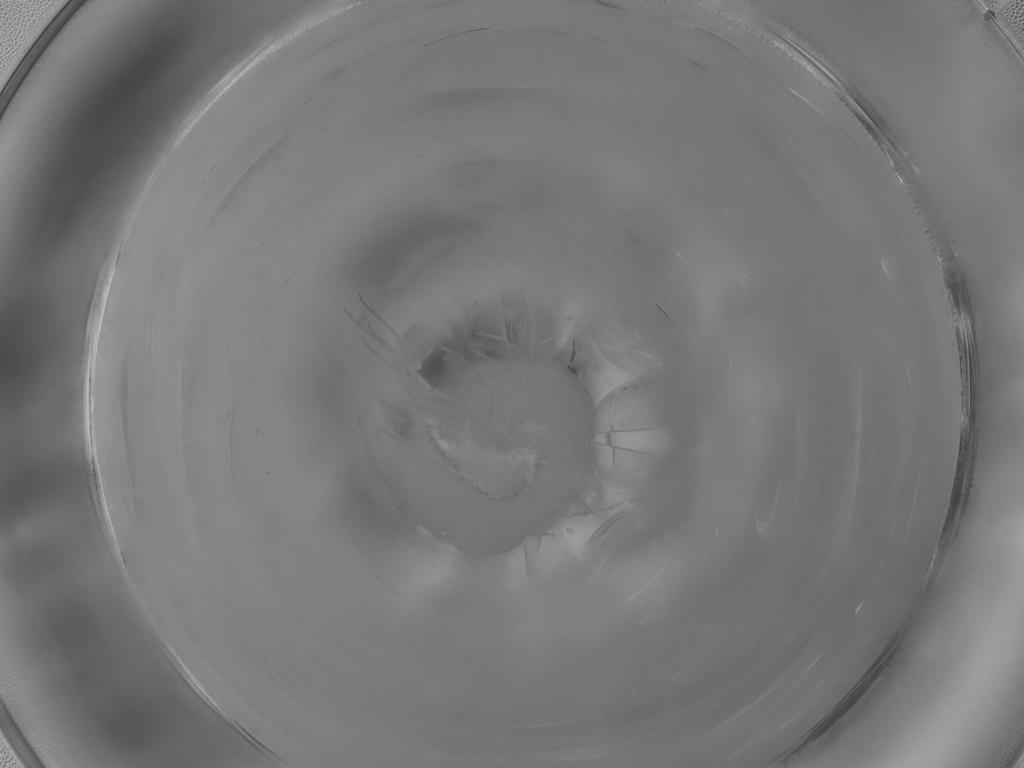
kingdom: Animalia
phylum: Arthropoda
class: Insecta
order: Diptera
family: Phoridae
